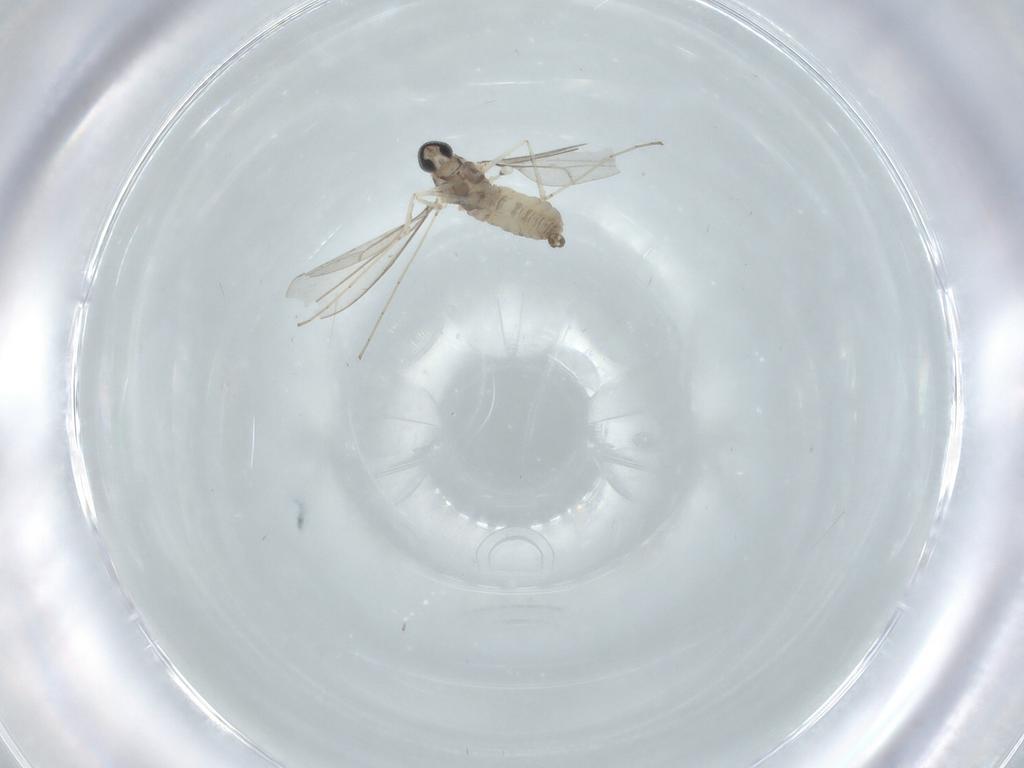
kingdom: Animalia
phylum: Arthropoda
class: Insecta
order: Diptera
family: Cecidomyiidae
